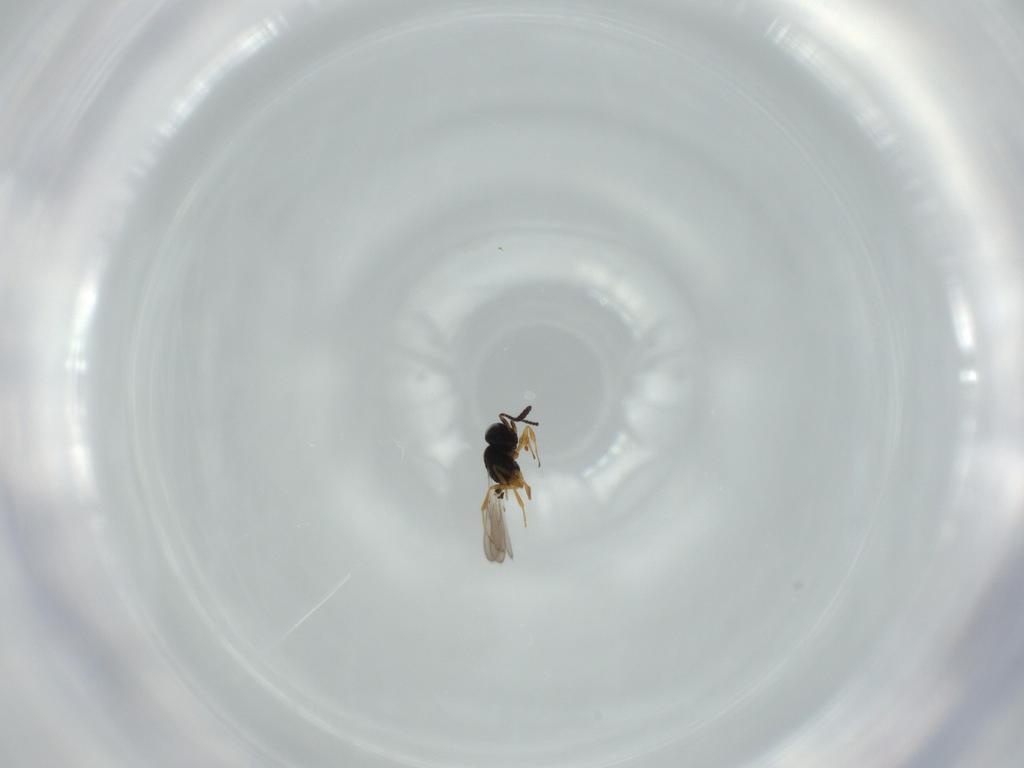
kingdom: Animalia
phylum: Arthropoda
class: Insecta
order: Hymenoptera
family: Scelionidae
